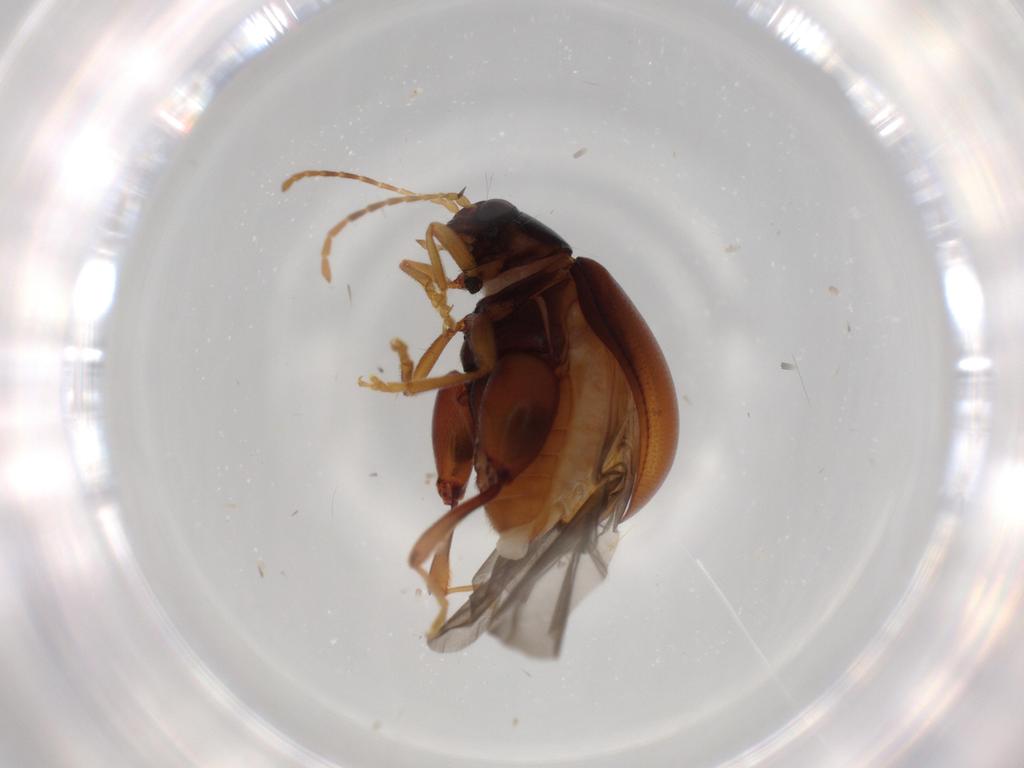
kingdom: Animalia
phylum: Arthropoda
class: Insecta
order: Coleoptera
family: Chrysomelidae
